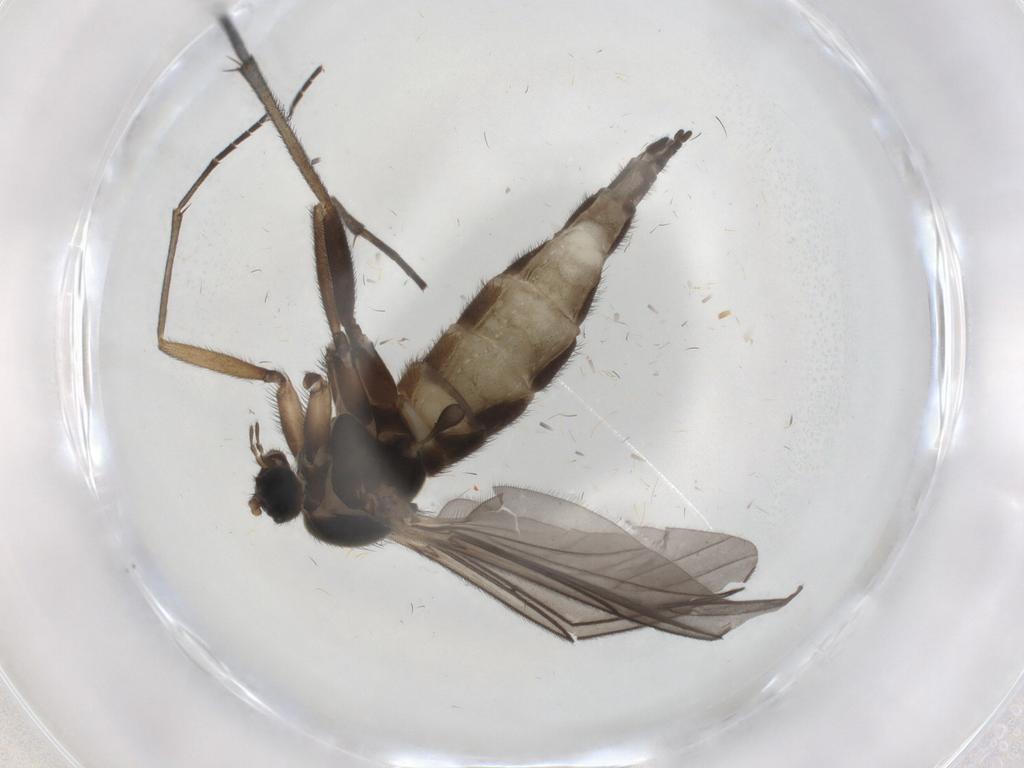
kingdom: Animalia
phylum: Arthropoda
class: Insecta
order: Diptera
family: Sciaridae
